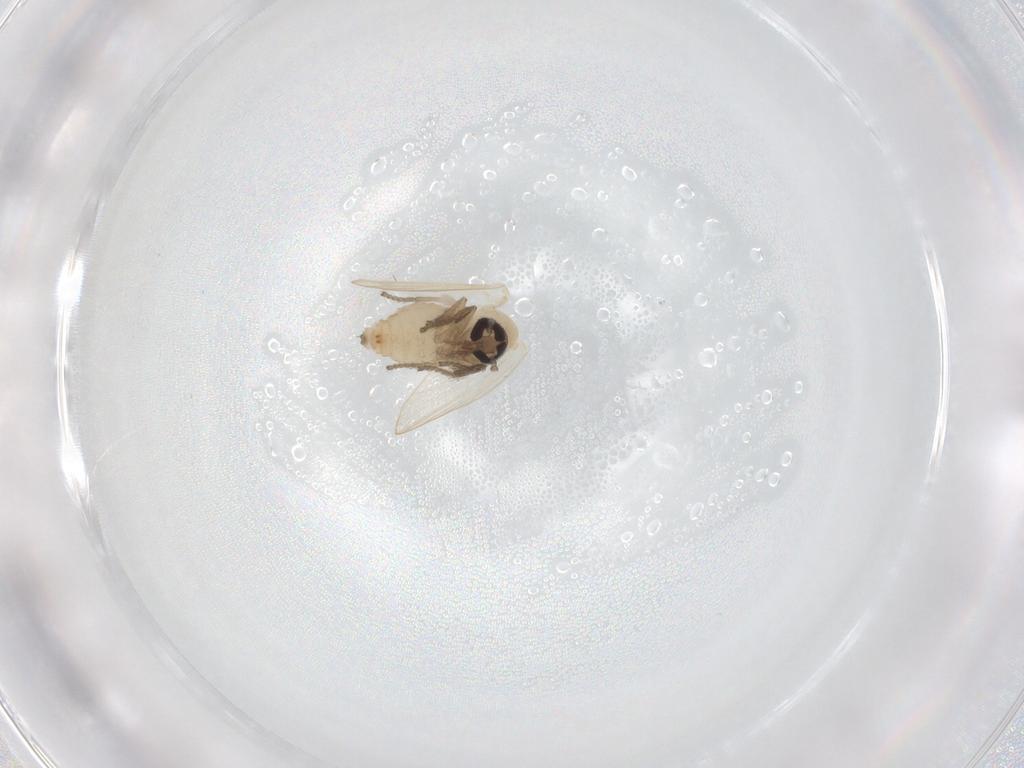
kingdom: Animalia
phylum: Arthropoda
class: Insecta
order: Diptera
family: Psychodidae
